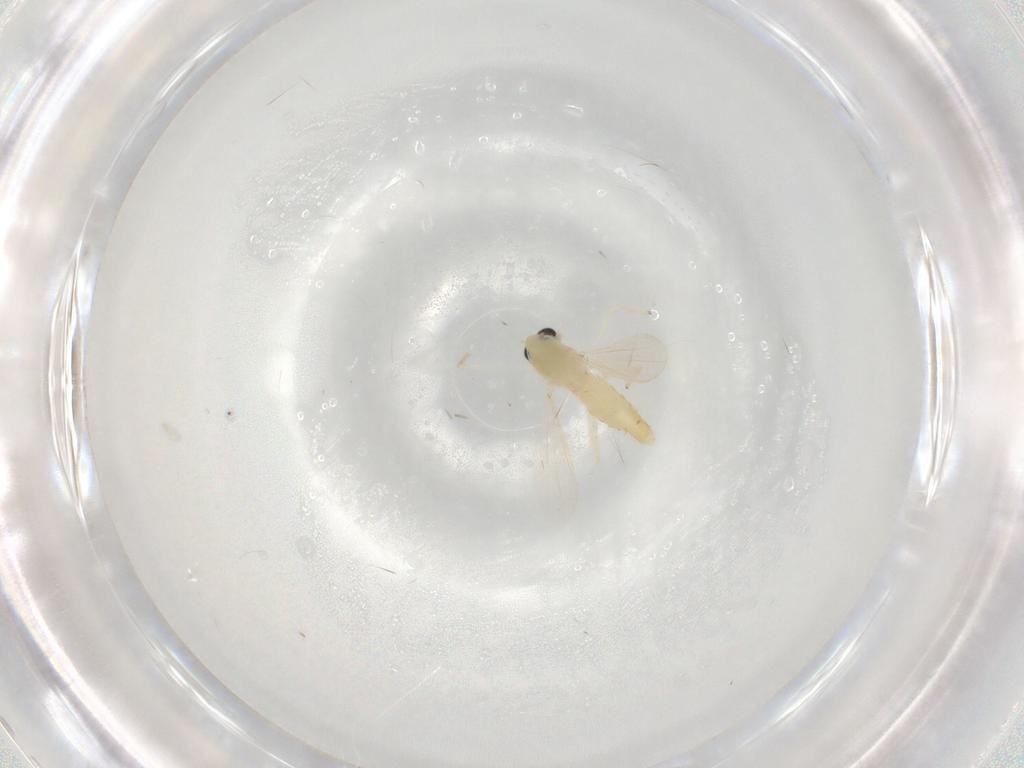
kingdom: Animalia
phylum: Arthropoda
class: Insecta
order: Diptera
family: Chironomidae
